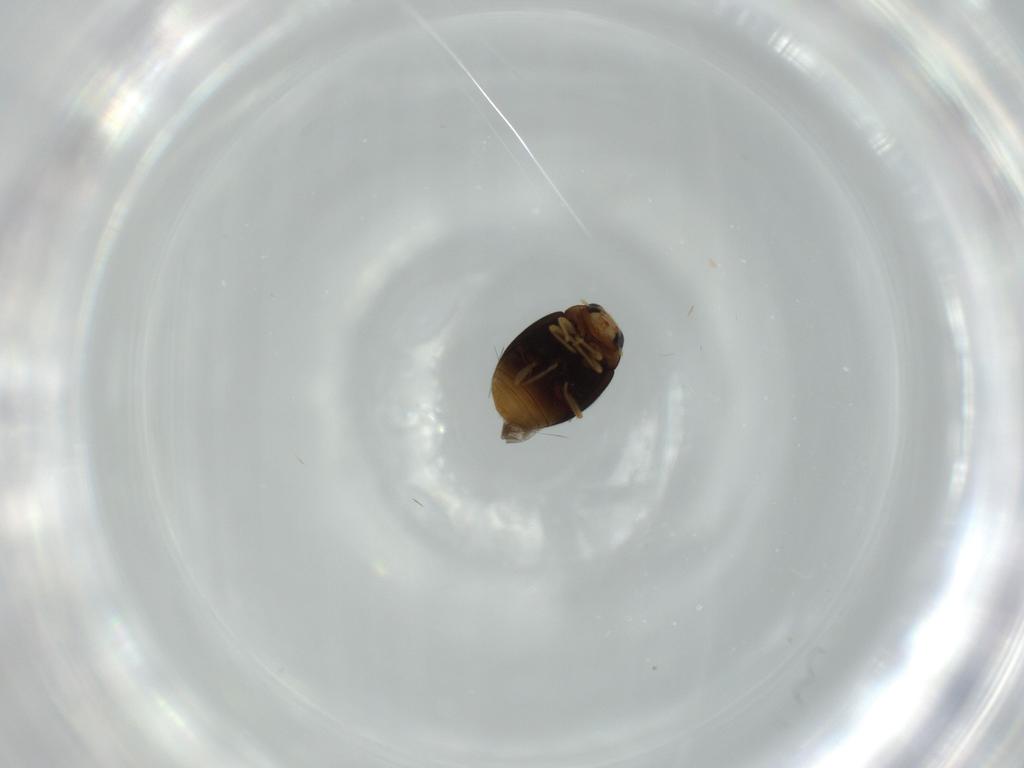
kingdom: Animalia
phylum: Arthropoda
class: Insecta
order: Coleoptera
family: Coccinellidae
